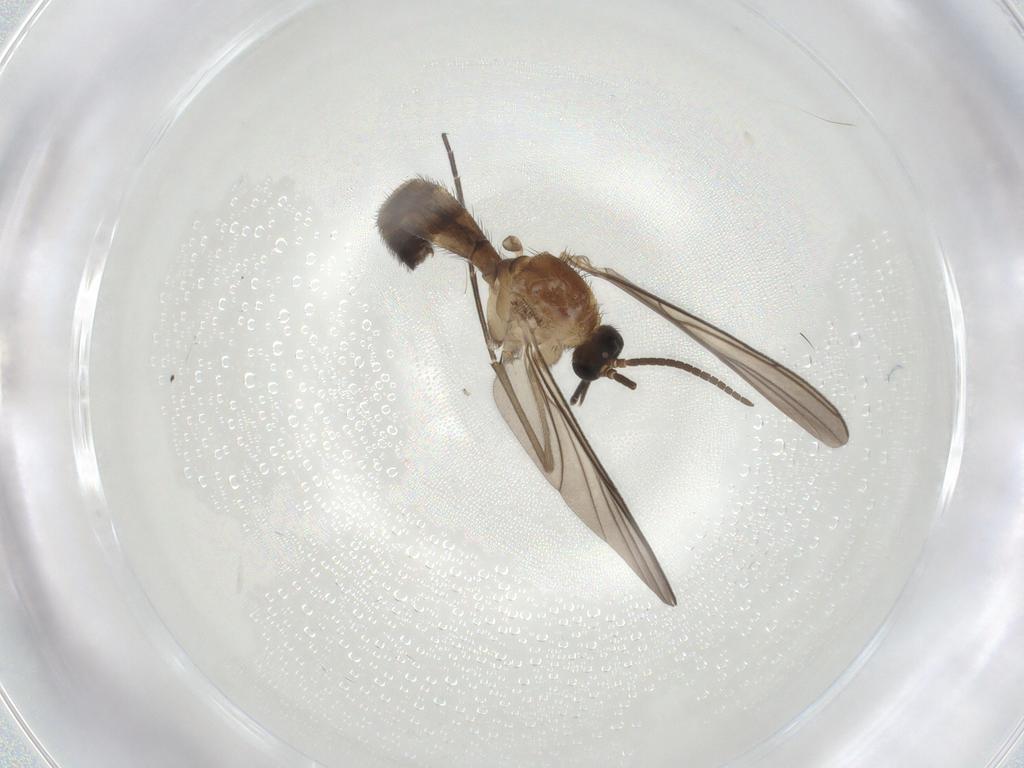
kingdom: Animalia
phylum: Arthropoda
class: Insecta
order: Diptera
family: Keroplatidae
